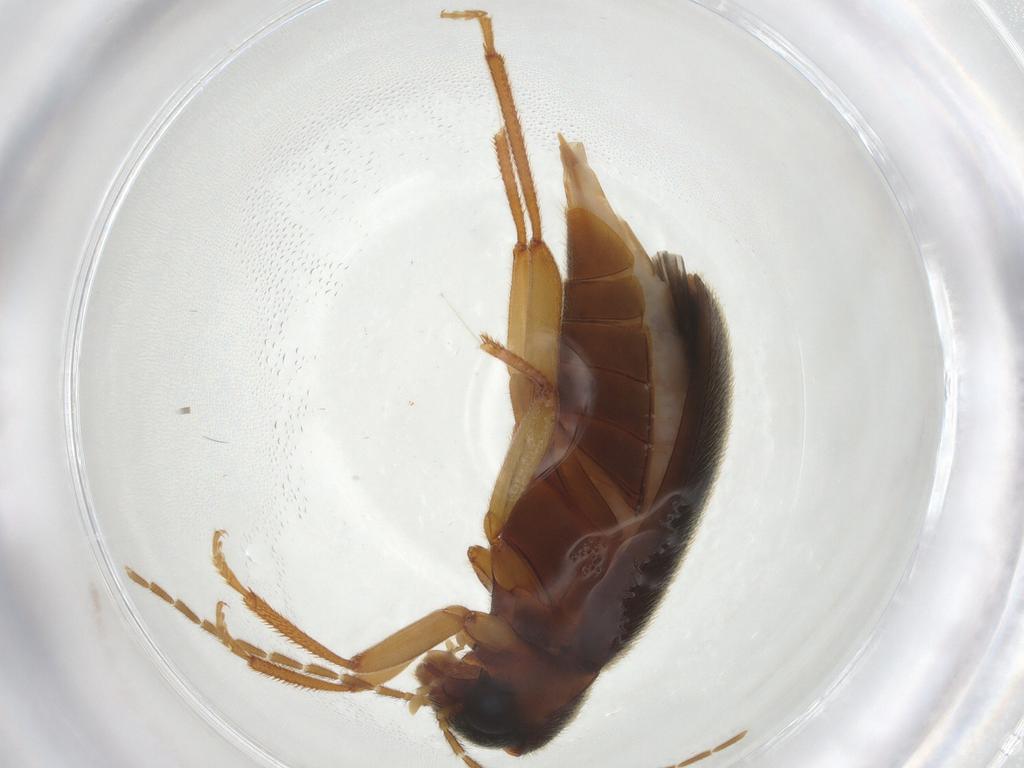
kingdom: Animalia
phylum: Arthropoda
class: Insecta
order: Coleoptera
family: Ptilodactylidae
